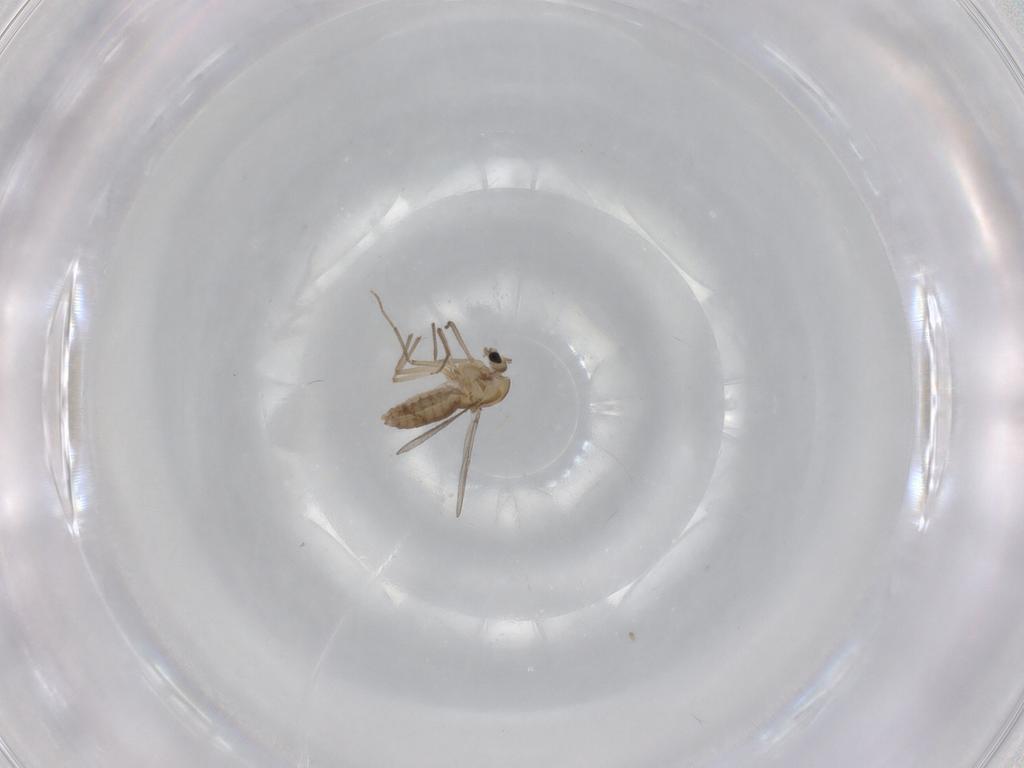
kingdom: Animalia
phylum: Arthropoda
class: Insecta
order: Diptera
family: Chironomidae
